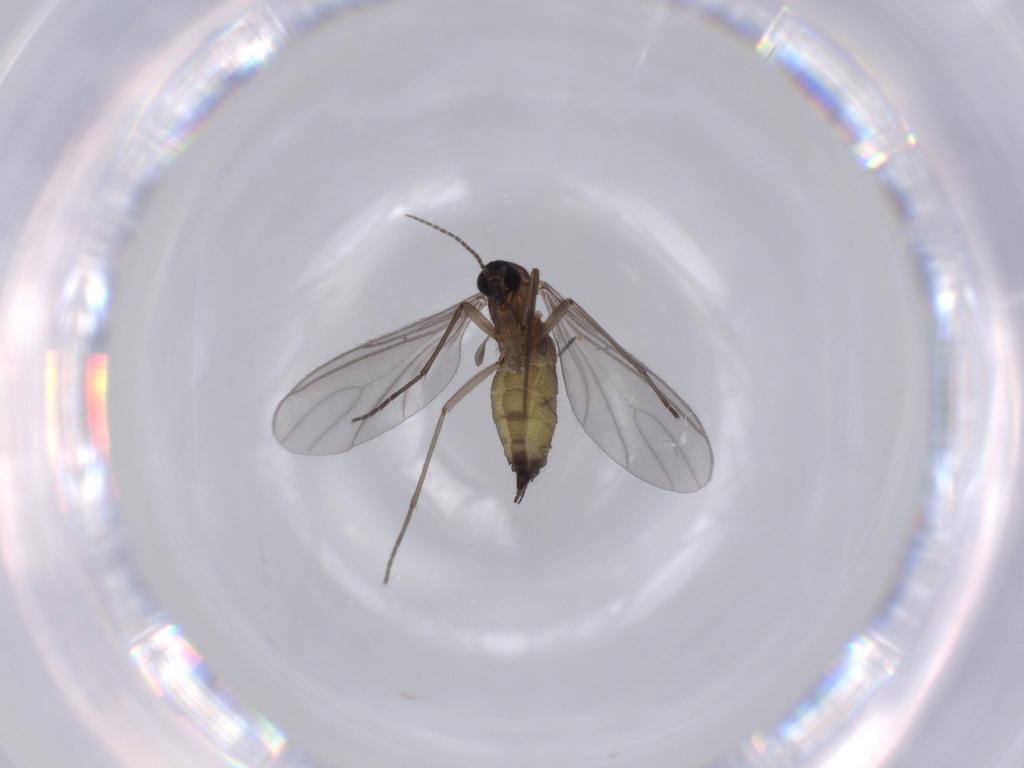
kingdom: Animalia
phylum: Arthropoda
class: Insecta
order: Diptera
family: Sciaridae
